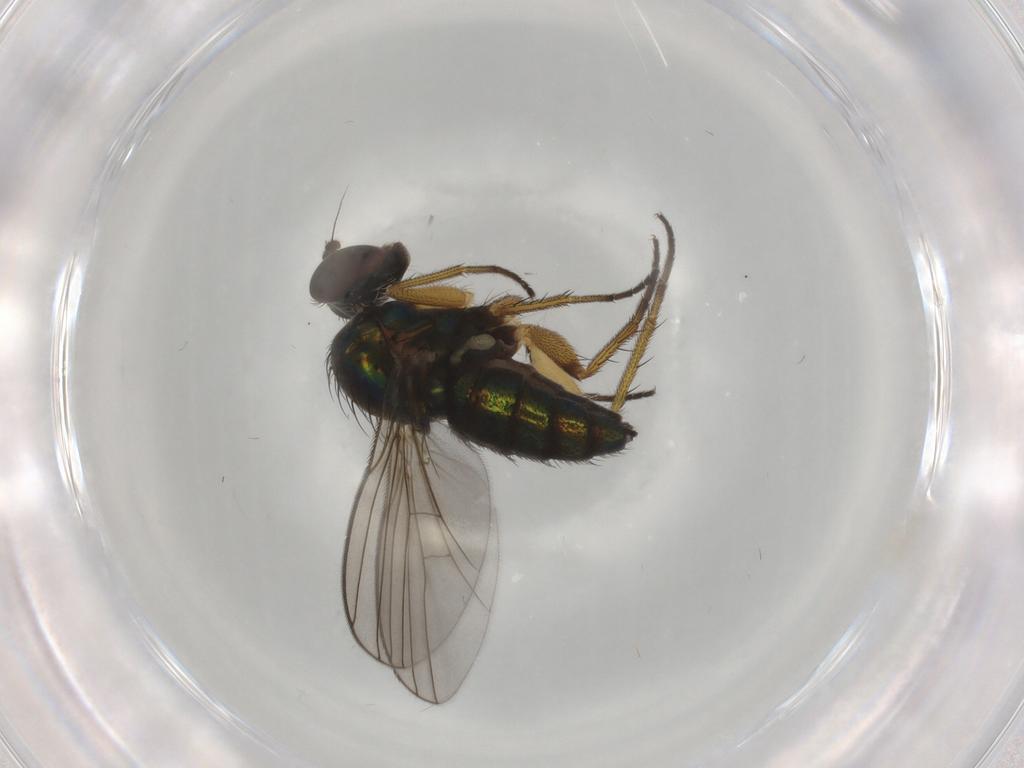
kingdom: Animalia
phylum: Arthropoda
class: Insecta
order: Diptera
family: Dolichopodidae
